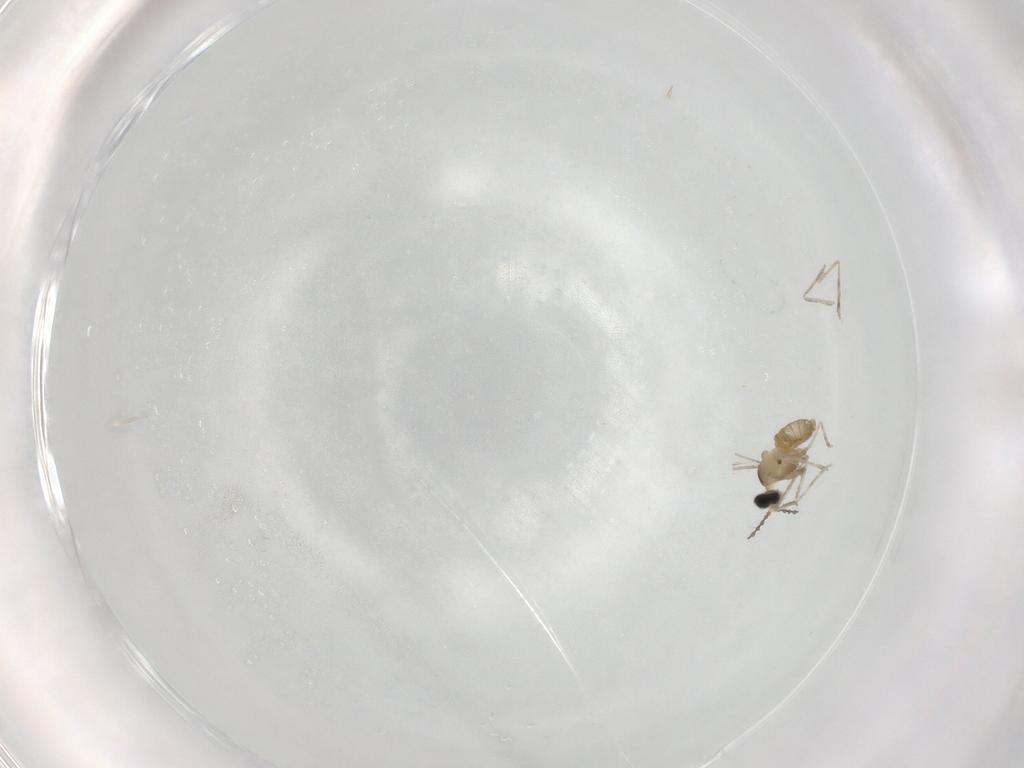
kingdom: Animalia
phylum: Arthropoda
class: Insecta
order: Diptera
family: Cecidomyiidae
